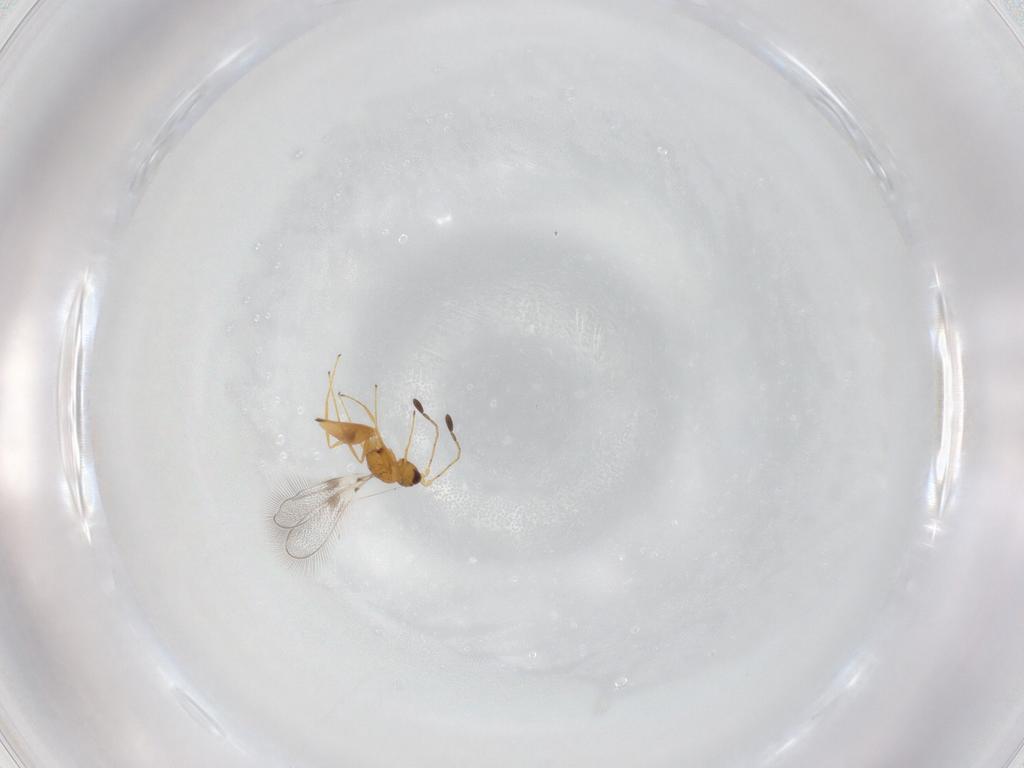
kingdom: Animalia
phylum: Arthropoda
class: Insecta
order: Hymenoptera
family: Mymaridae
